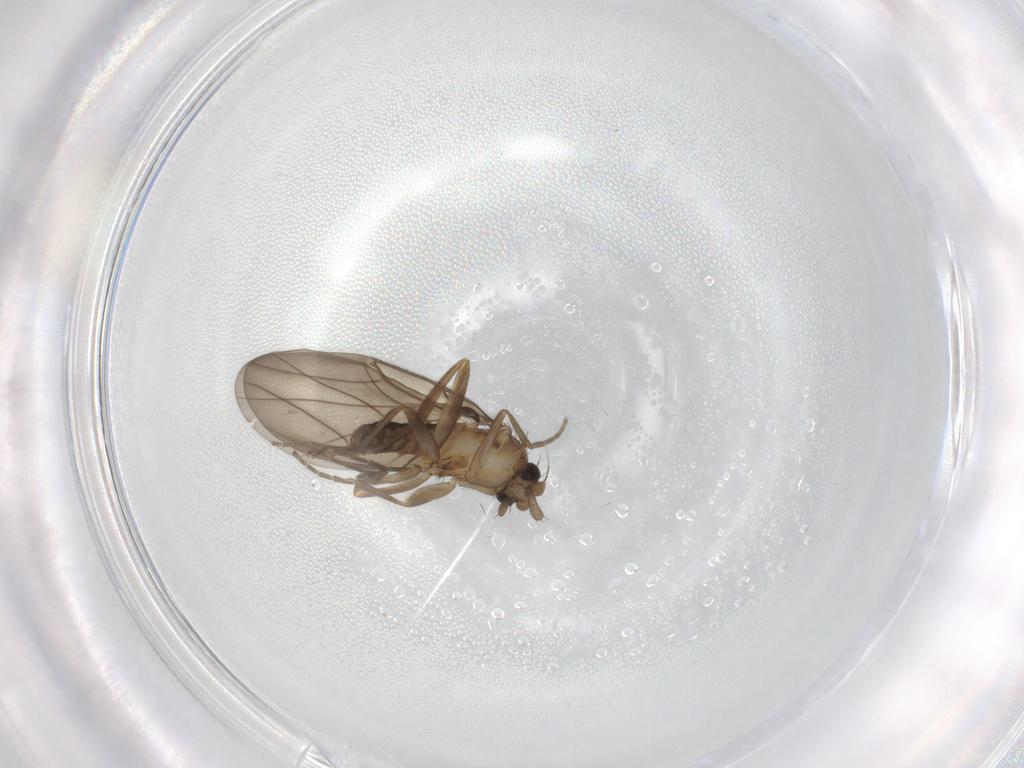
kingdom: Animalia
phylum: Arthropoda
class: Insecta
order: Diptera
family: Phoridae
